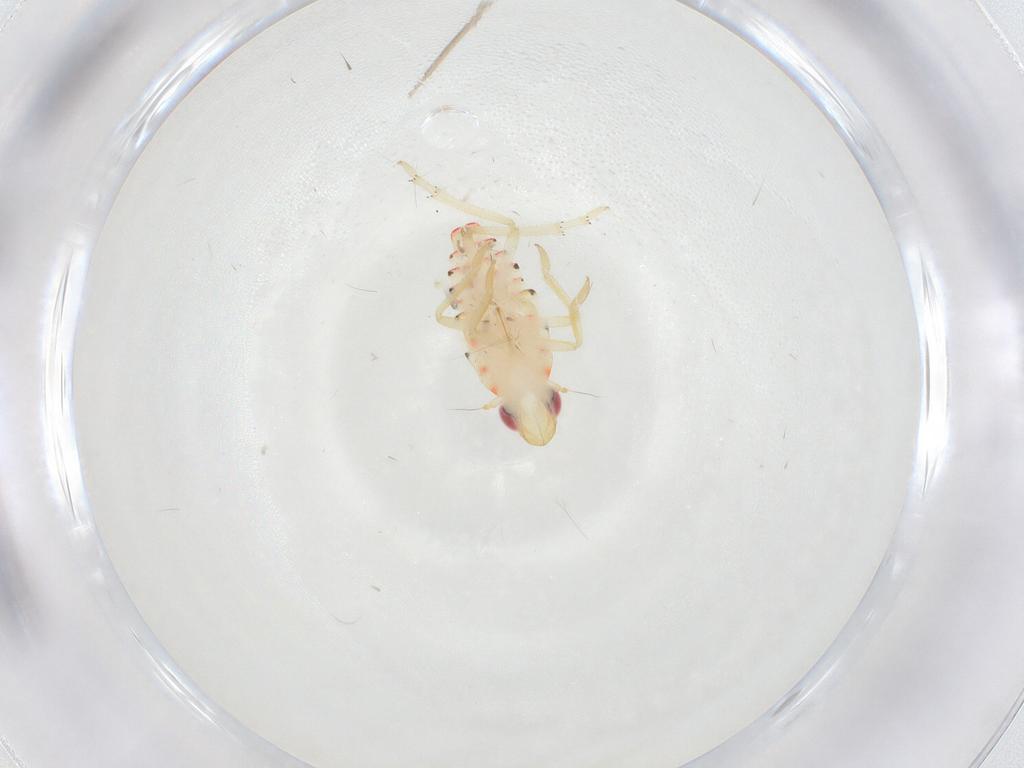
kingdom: Animalia
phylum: Arthropoda
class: Insecta
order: Hemiptera
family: Tropiduchidae
